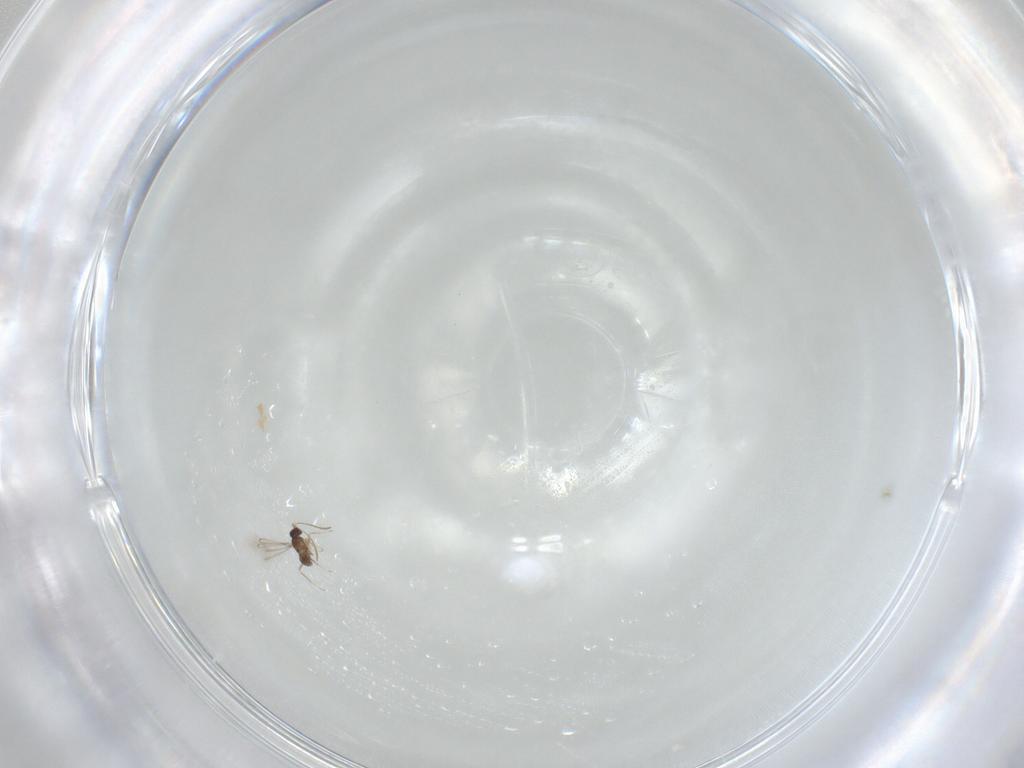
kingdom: Animalia
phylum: Arthropoda
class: Insecta
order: Hymenoptera
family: Mymaridae
